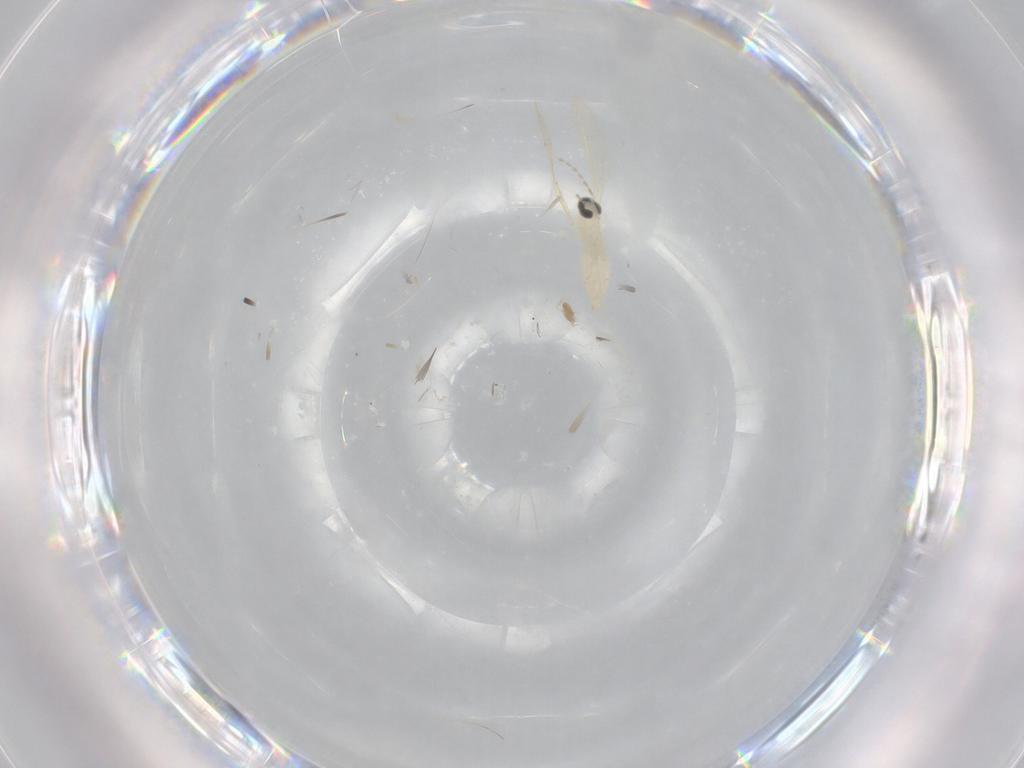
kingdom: Animalia
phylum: Arthropoda
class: Insecta
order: Diptera
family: Cecidomyiidae
